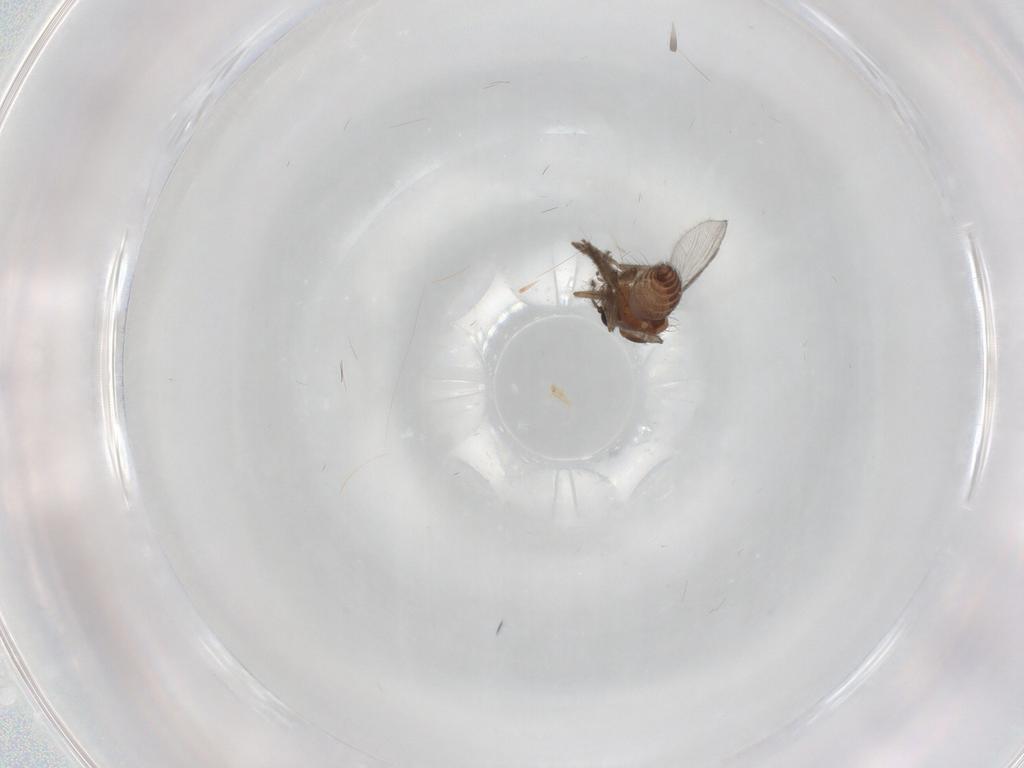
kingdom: Animalia
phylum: Arthropoda
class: Insecta
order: Diptera
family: Ceratopogonidae
